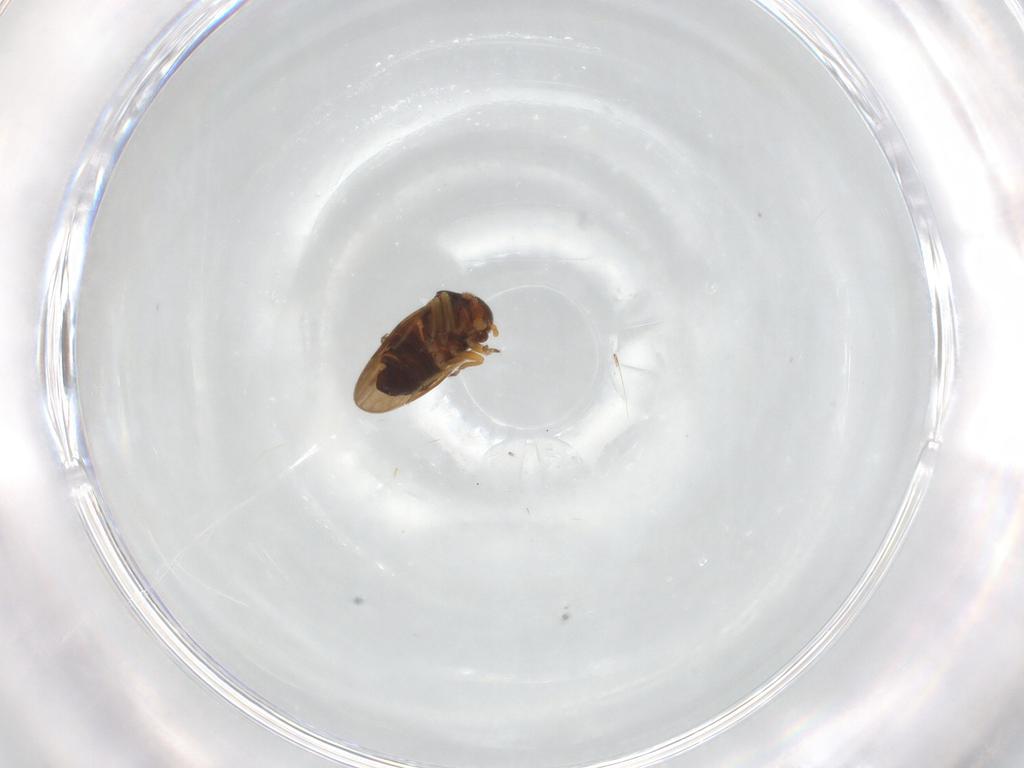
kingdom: Animalia
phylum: Arthropoda
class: Insecta
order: Hemiptera
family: Schizopteridae
